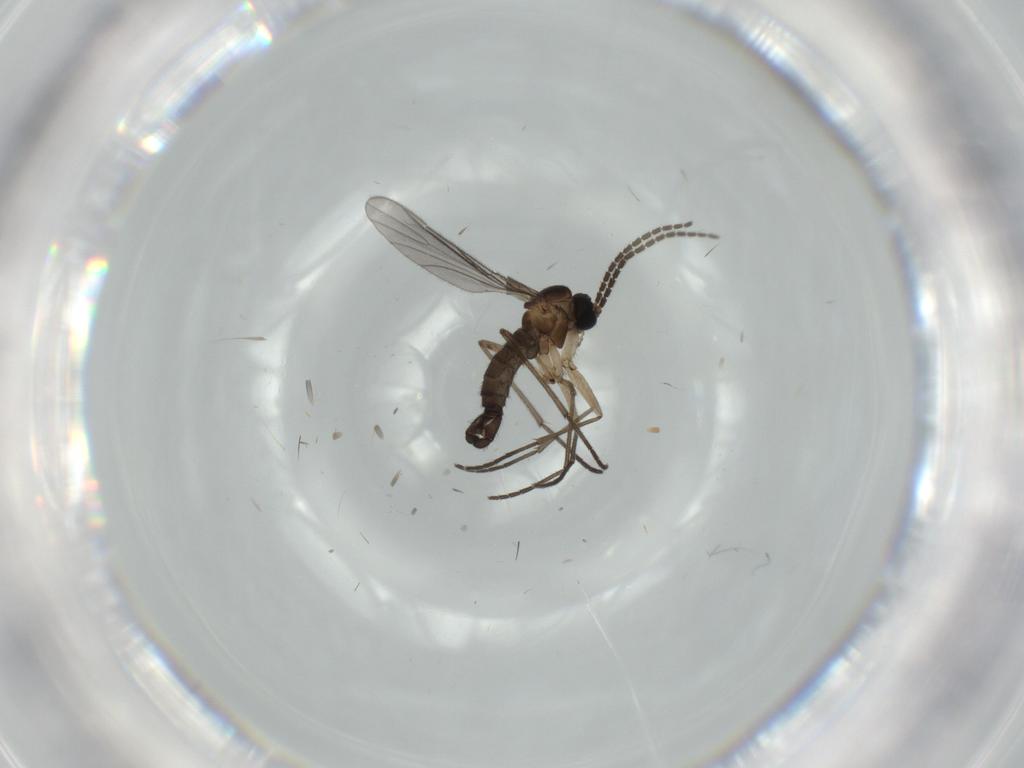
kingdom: Animalia
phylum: Arthropoda
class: Insecta
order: Diptera
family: Sciaridae
